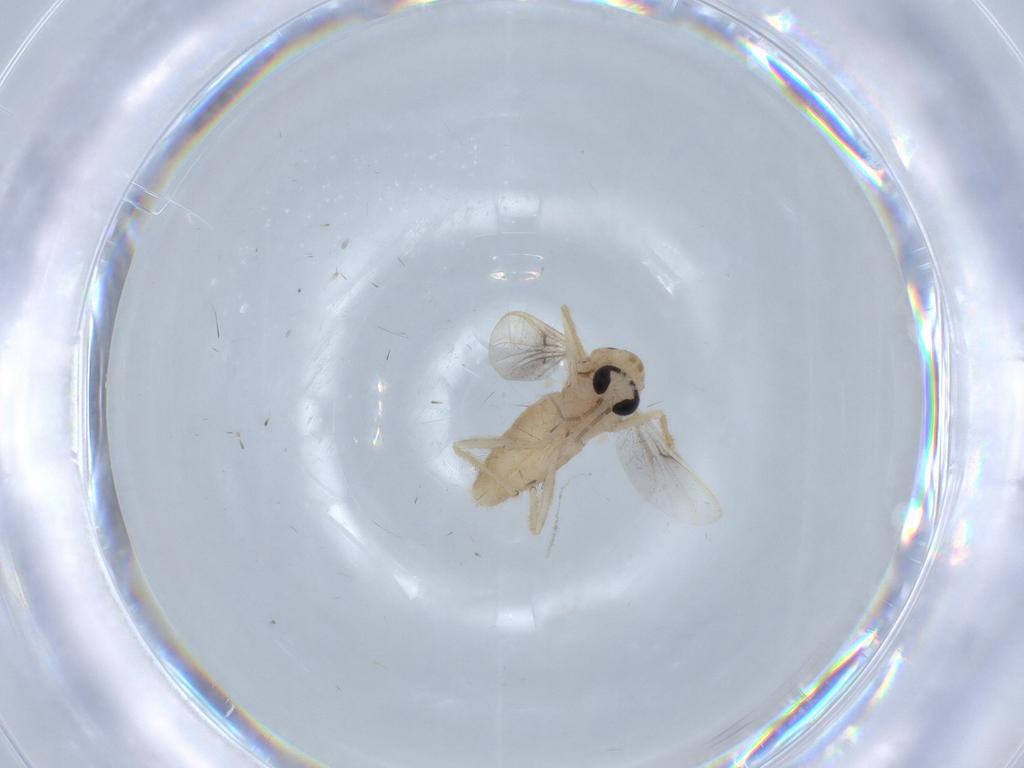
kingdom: Animalia
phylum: Arthropoda
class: Insecta
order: Diptera
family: Chironomidae
